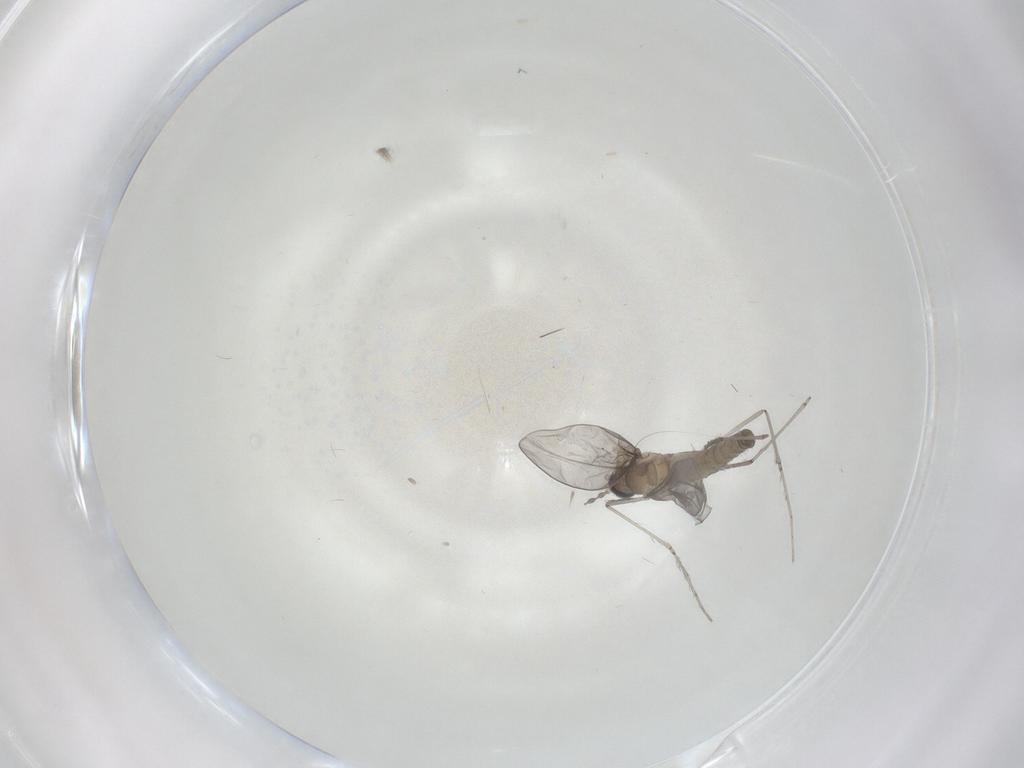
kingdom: Animalia
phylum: Arthropoda
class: Insecta
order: Diptera
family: Cecidomyiidae
